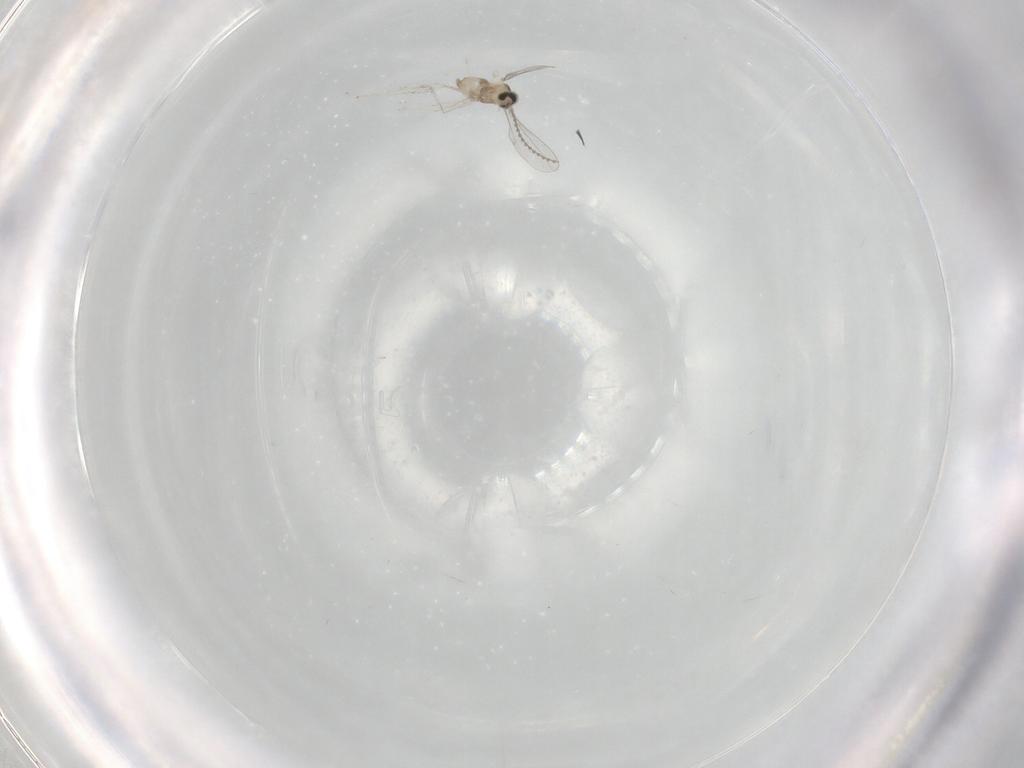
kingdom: Animalia
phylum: Arthropoda
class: Insecta
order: Diptera
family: Cecidomyiidae
